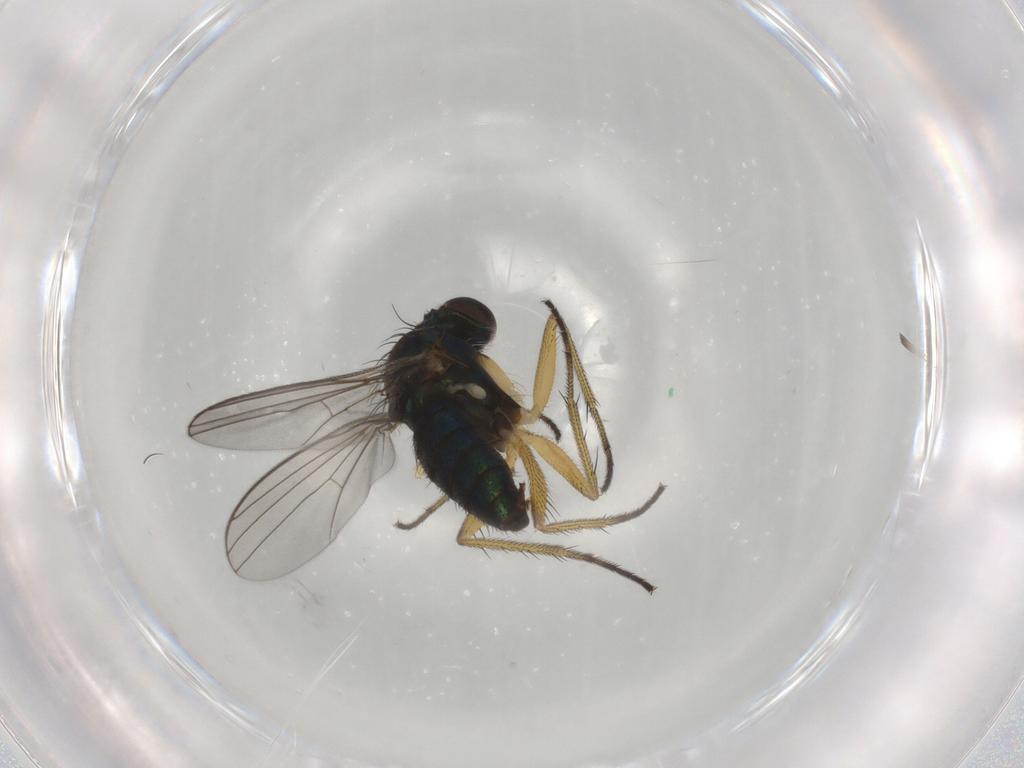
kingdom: Animalia
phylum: Arthropoda
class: Insecta
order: Diptera
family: Dolichopodidae
